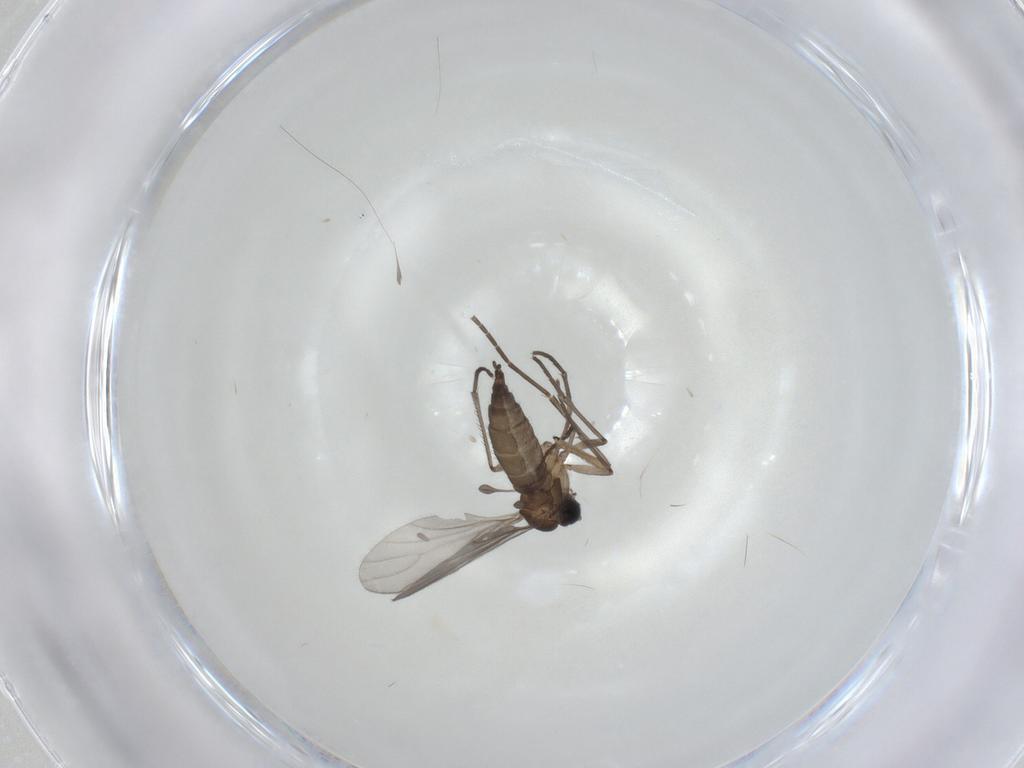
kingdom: Animalia
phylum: Arthropoda
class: Insecta
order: Diptera
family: Sciaridae
